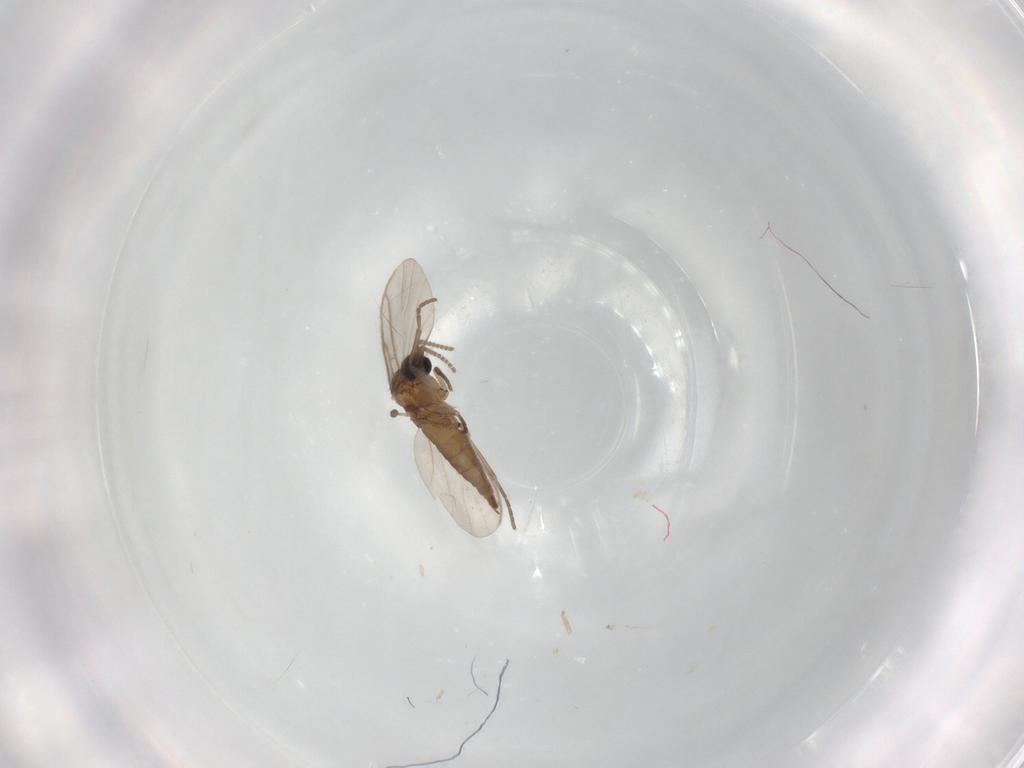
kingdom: Animalia
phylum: Arthropoda
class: Insecta
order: Diptera
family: Sciaridae
